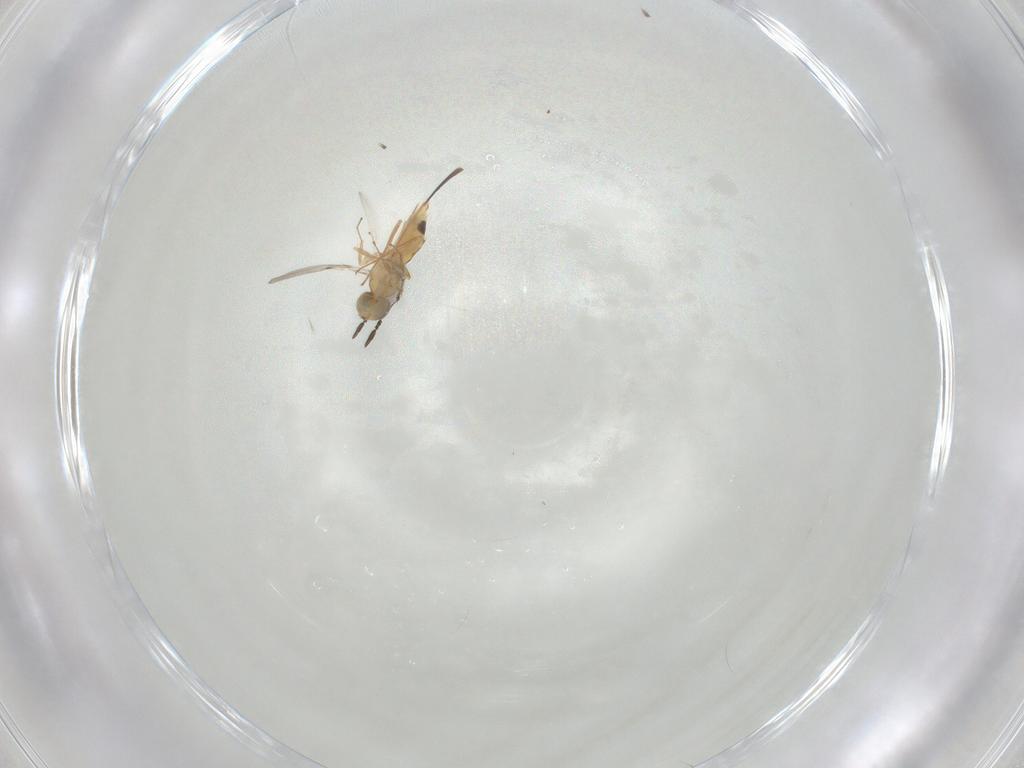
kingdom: Animalia
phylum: Arthropoda
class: Insecta
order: Hymenoptera
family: Trichogrammatidae
